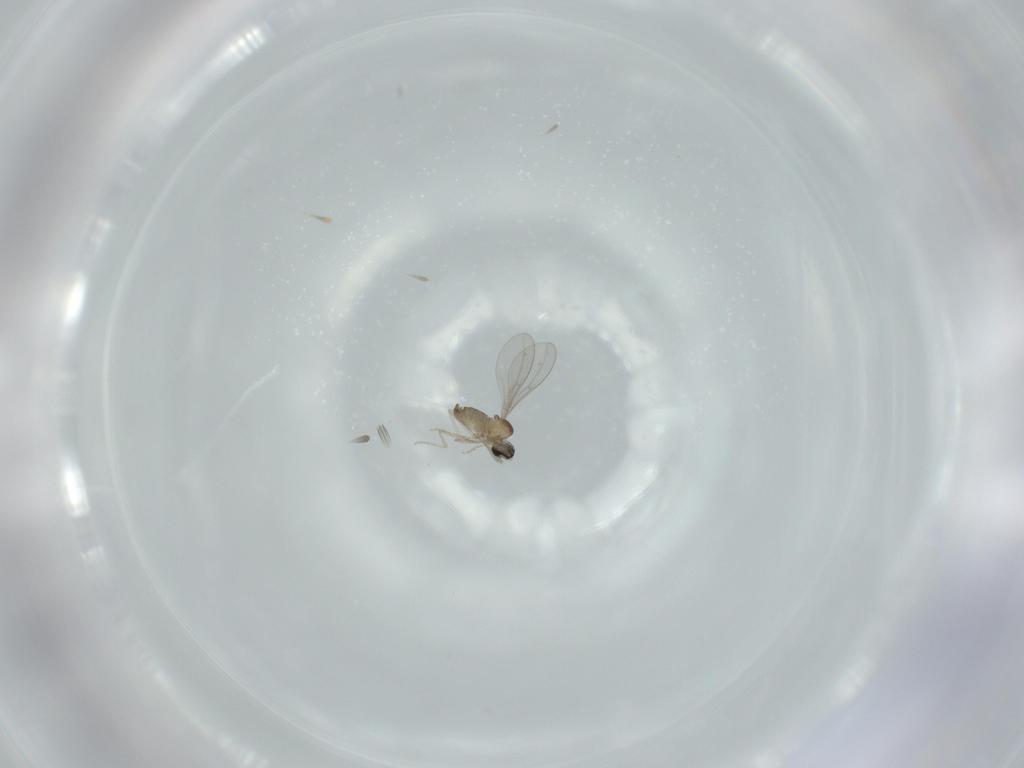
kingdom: Animalia
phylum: Arthropoda
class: Insecta
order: Diptera
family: Cecidomyiidae
